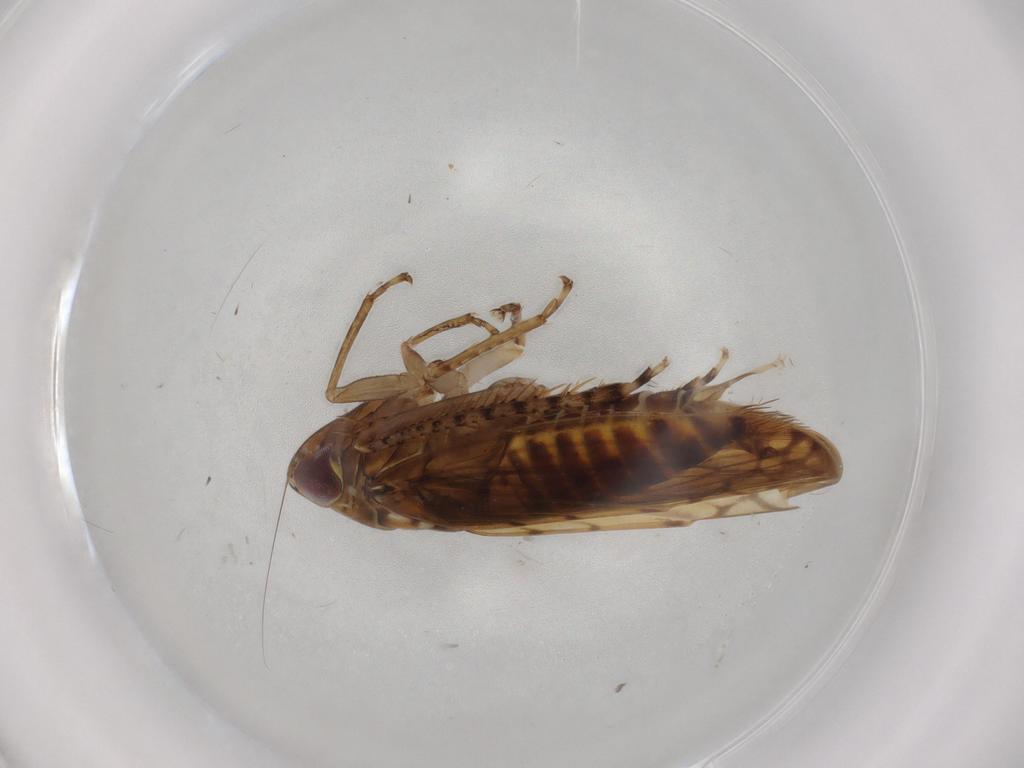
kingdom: Animalia
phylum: Arthropoda
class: Insecta
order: Hemiptera
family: Cicadellidae
